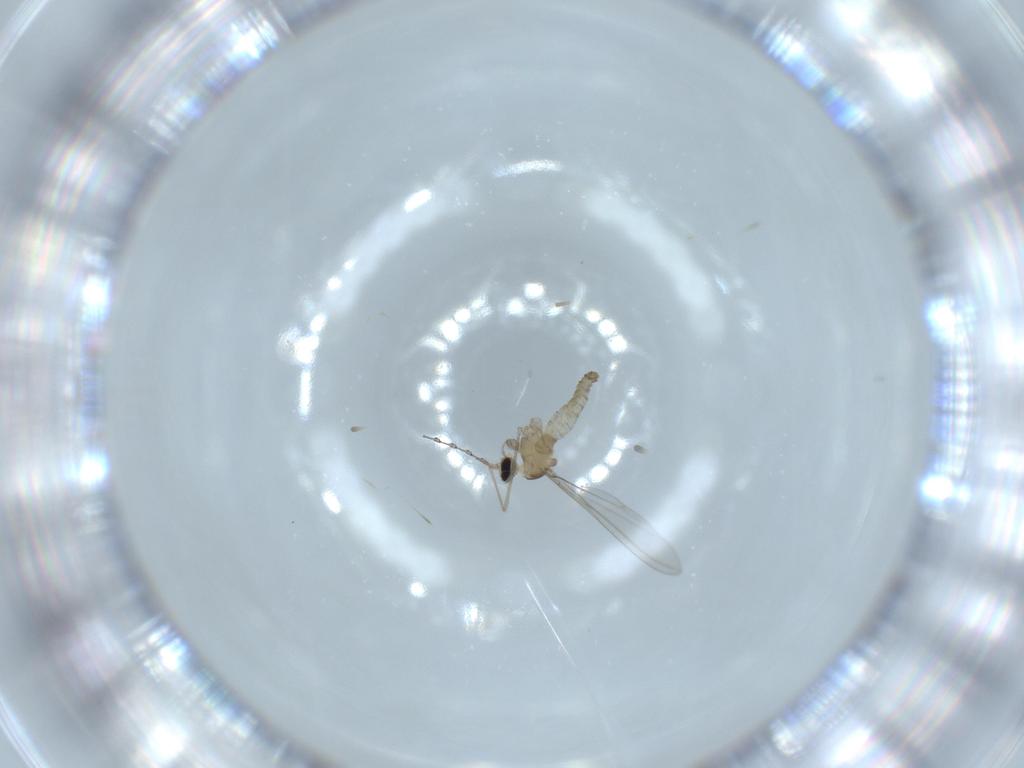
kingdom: Animalia
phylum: Arthropoda
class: Insecta
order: Diptera
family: Cecidomyiidae
